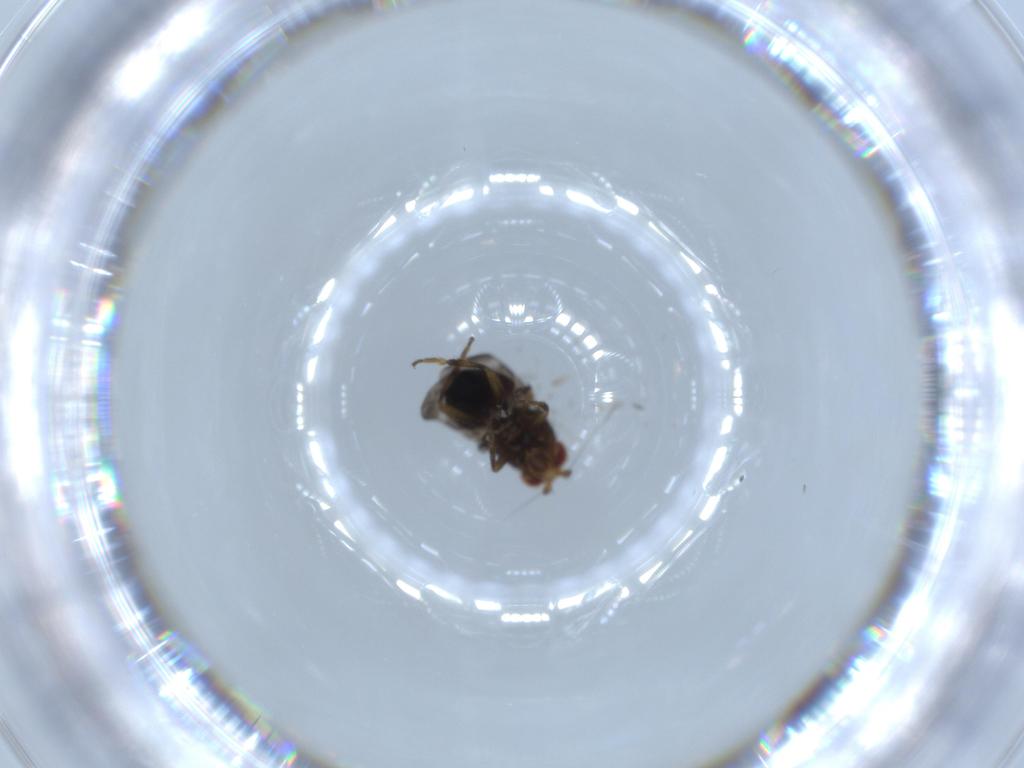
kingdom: Animalia
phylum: Arthropoda
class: Insecta
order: Diptera
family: Sphaeroceridae
